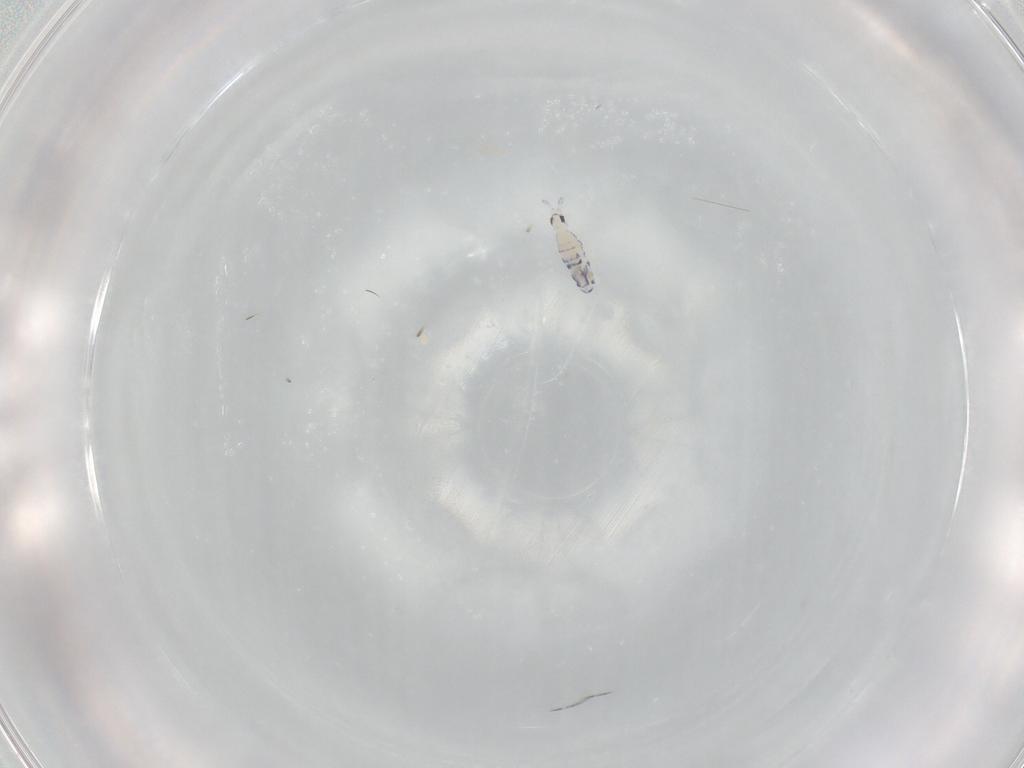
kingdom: Animalia
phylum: Arthropoda
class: Collembola
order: Entomobryomorpha
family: Entomobryidae
